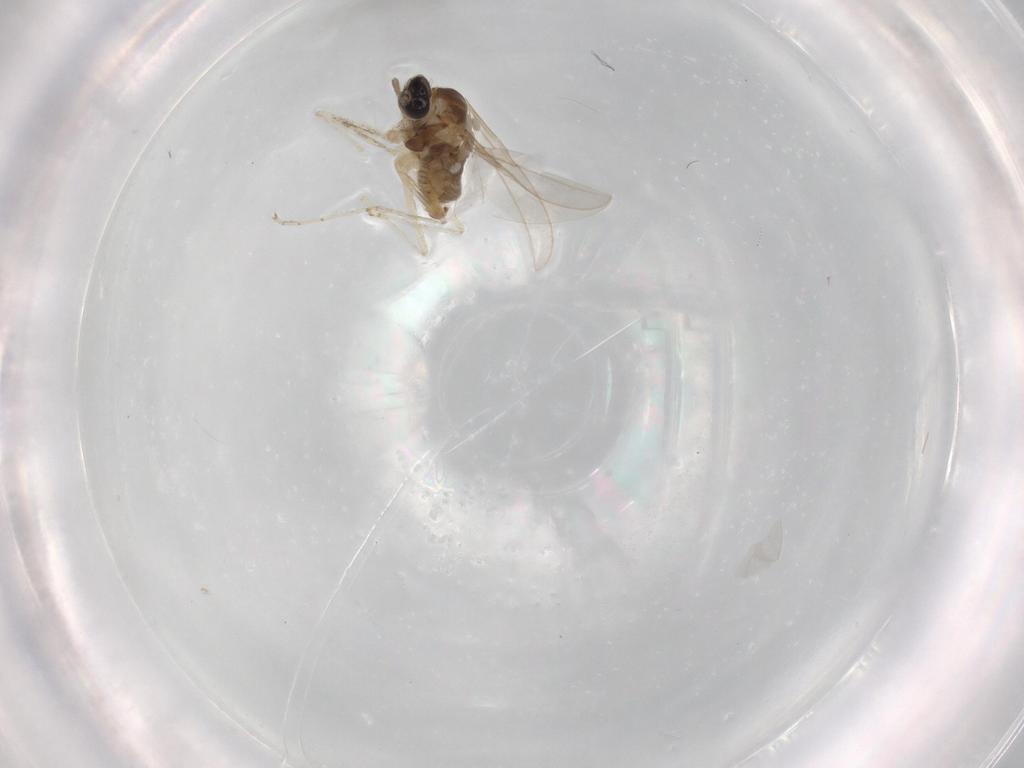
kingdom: Animalia
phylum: Arthropoda
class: Insecta
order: Diptera
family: Cecidomyiidae
